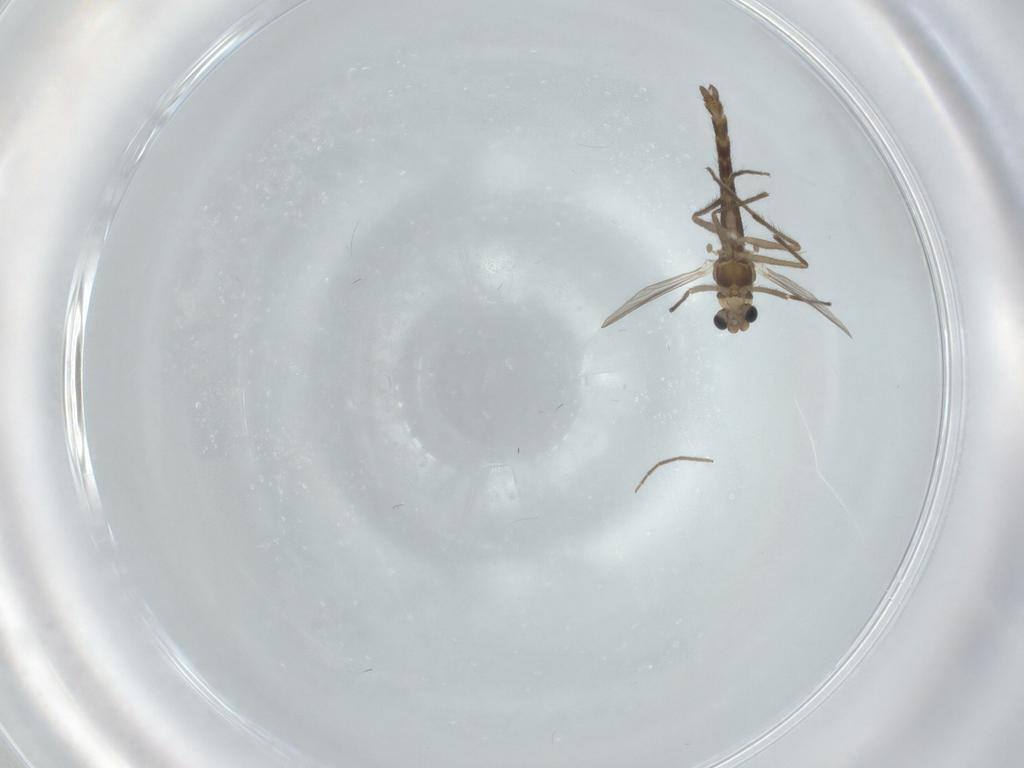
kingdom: Animalia
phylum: Arthropoda
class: Insecta
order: Diptera
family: Chironomidae
